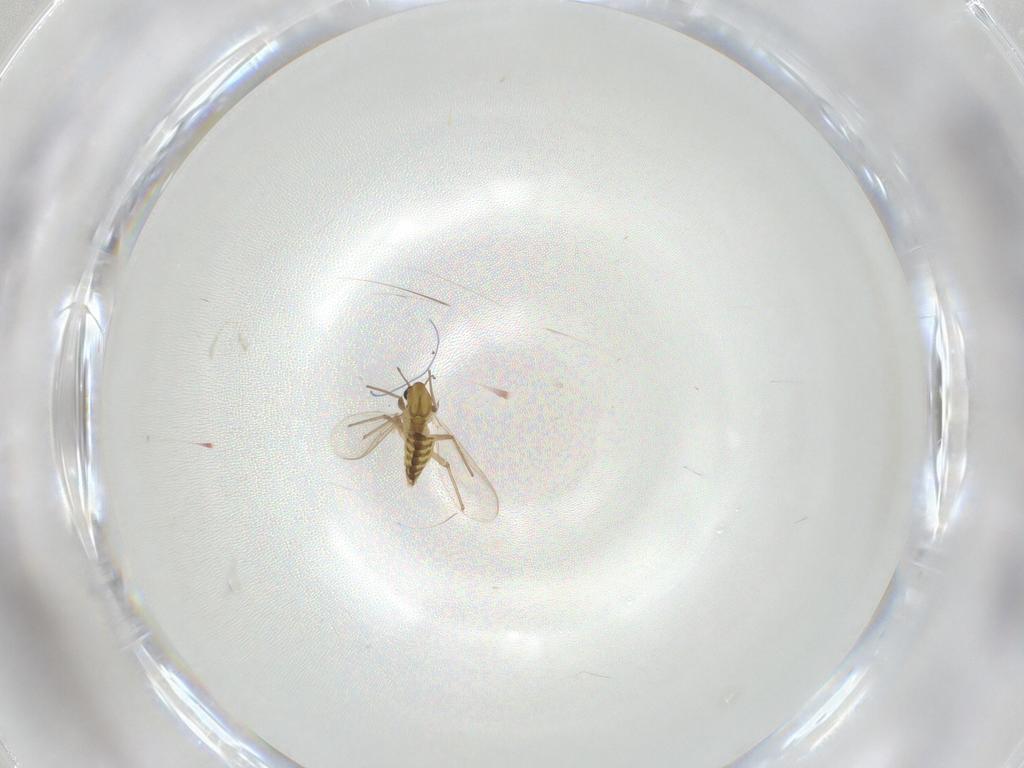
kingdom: Animalia
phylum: Arthropoda
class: Insecta
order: Diptera
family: Chironomidae
